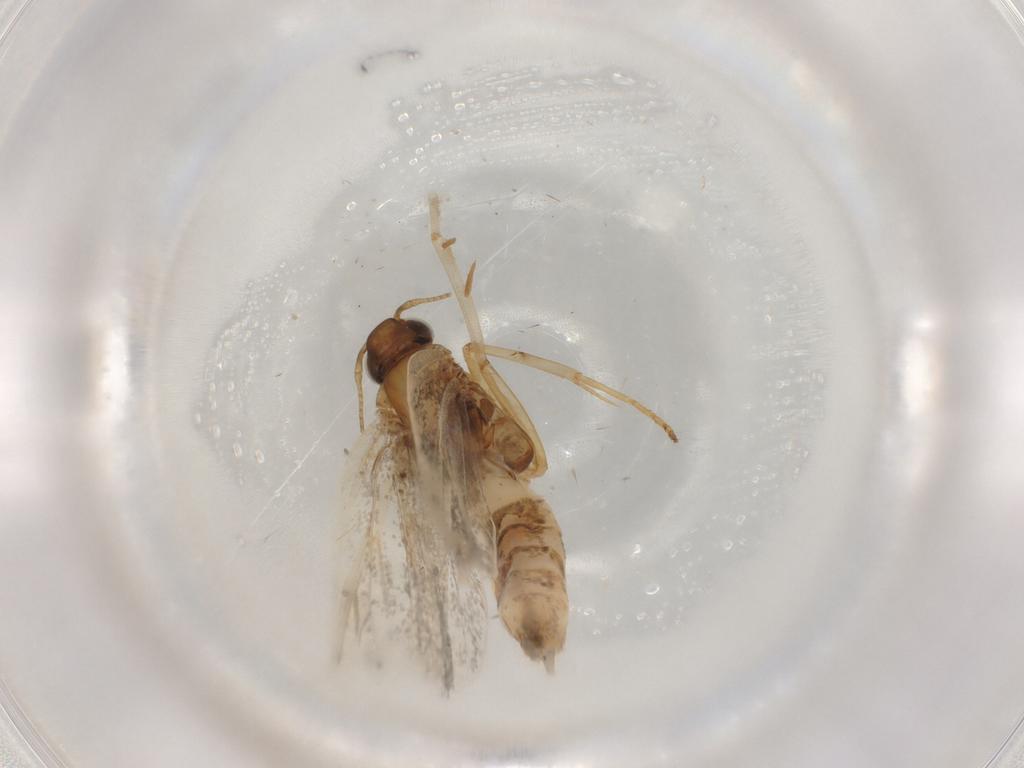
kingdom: Animalia
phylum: Arthropoda
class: Insecta
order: Lepidoptera
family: Gelechiidae
